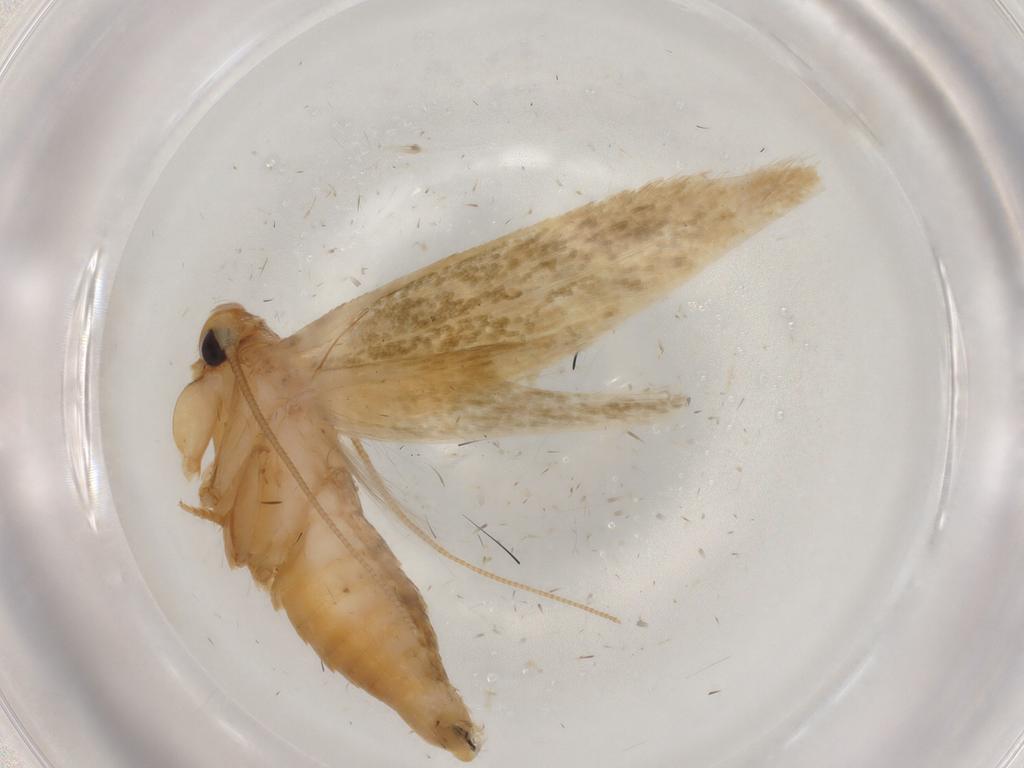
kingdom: Animalia
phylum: Arthropoda
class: Insecta
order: Lepidoptera
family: Tineidae
